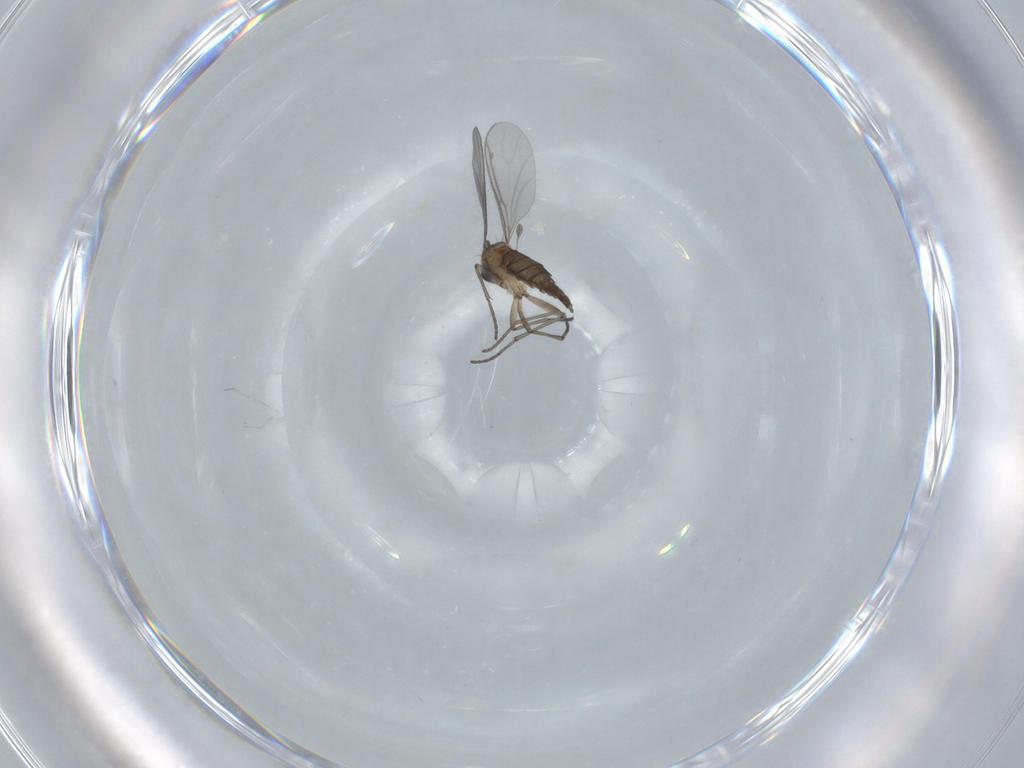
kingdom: Animalia
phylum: Arthropoda
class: Insecta
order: Diptera
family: Sciaridae
